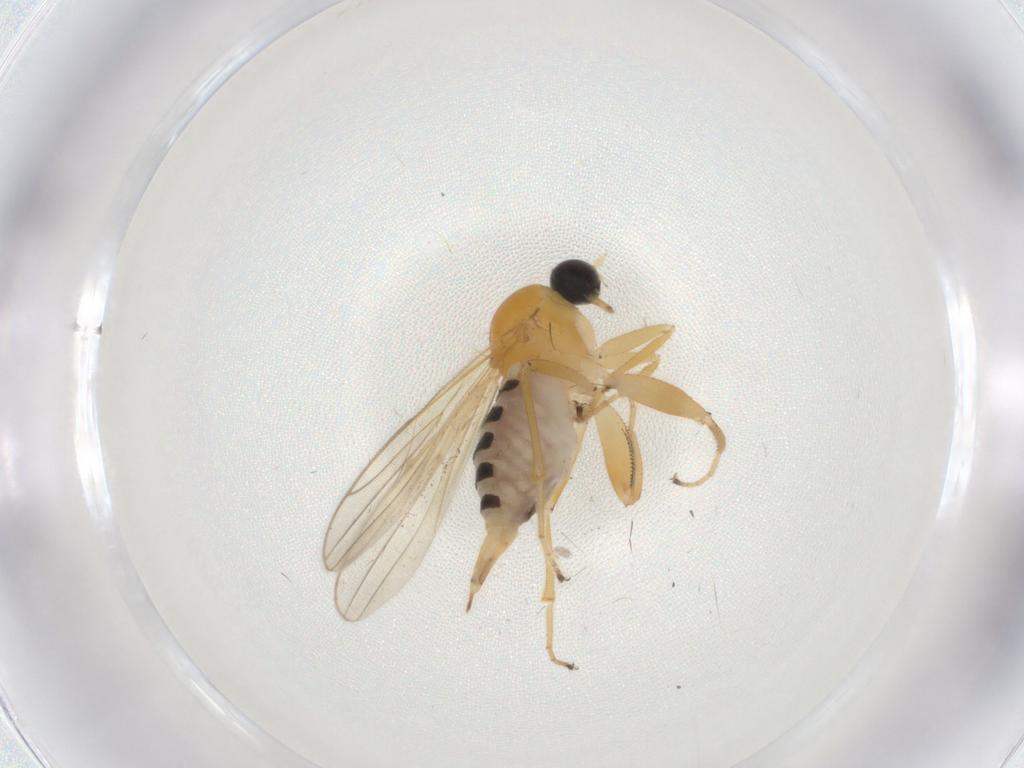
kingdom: Animalia
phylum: Arthropoda
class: Insecta
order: Diptera
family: Hybotidae
